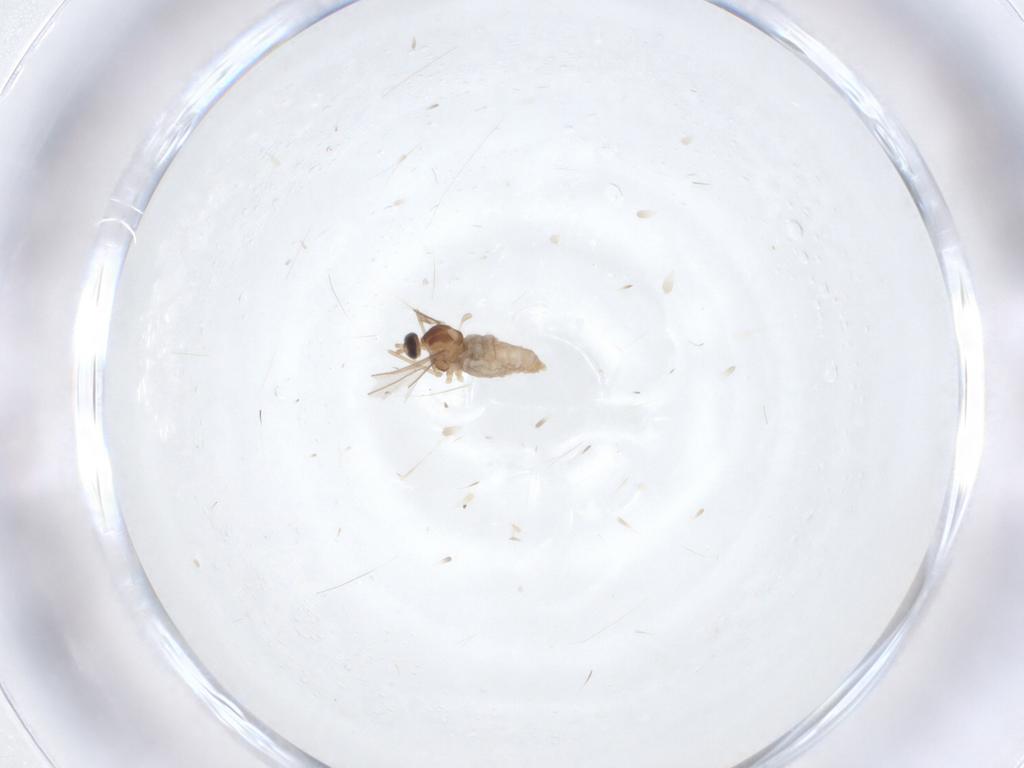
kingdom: Animalia
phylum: Arthropoda
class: Insecta
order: Diptera
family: Cecidomyiidae
